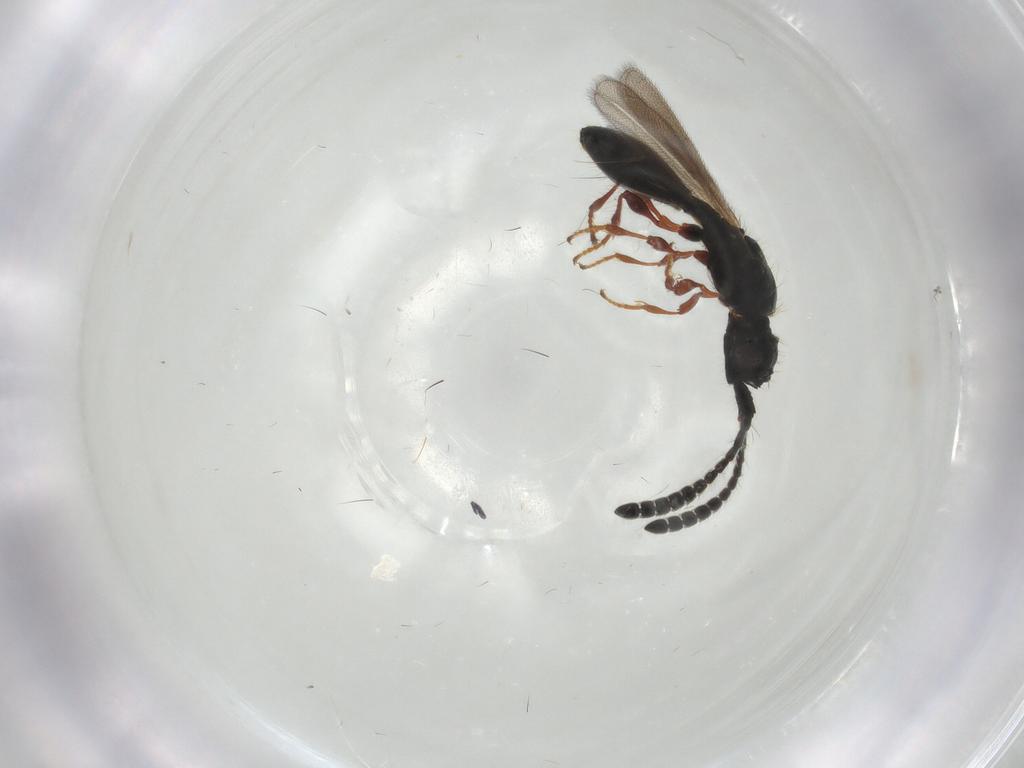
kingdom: Animalia
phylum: Arthropoda
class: Insecta
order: Hymenoptera
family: Diapriidae
